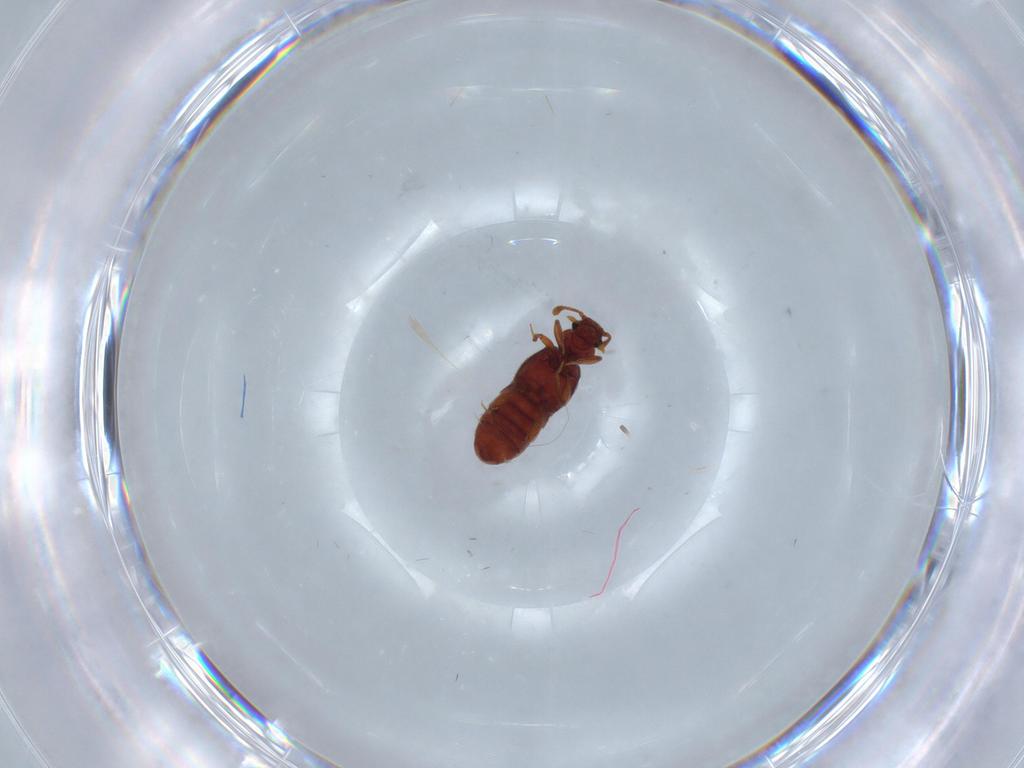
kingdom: Animalia
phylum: Arthropoda
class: Insecta
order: Coleoptera
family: Staphylinidae
